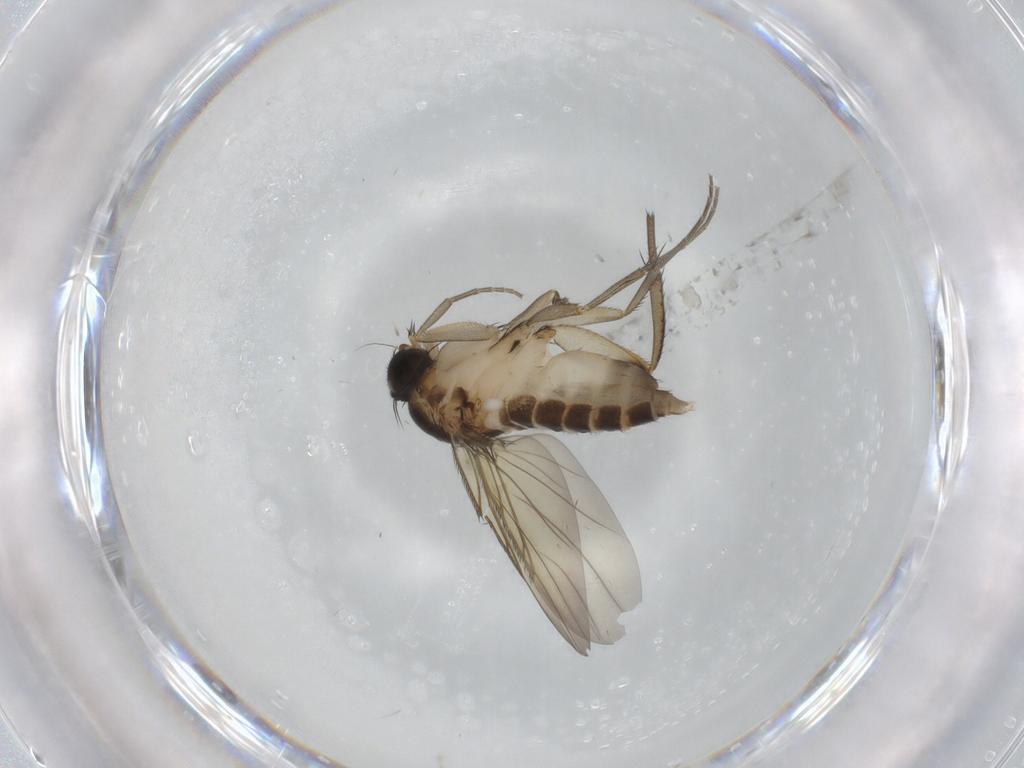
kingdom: Animalia
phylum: Arthropoda
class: Insecta
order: Diptera
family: Phoridae
